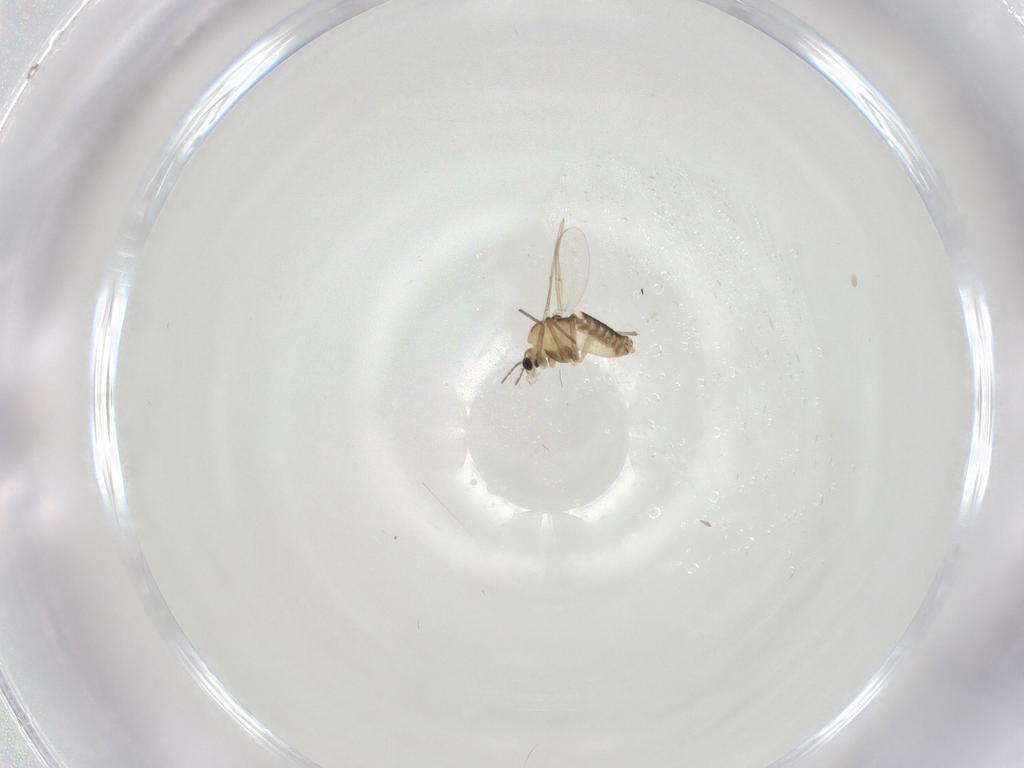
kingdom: Animalia
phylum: Arthropoda
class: Insecta
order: Diptera
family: Chironomidae
